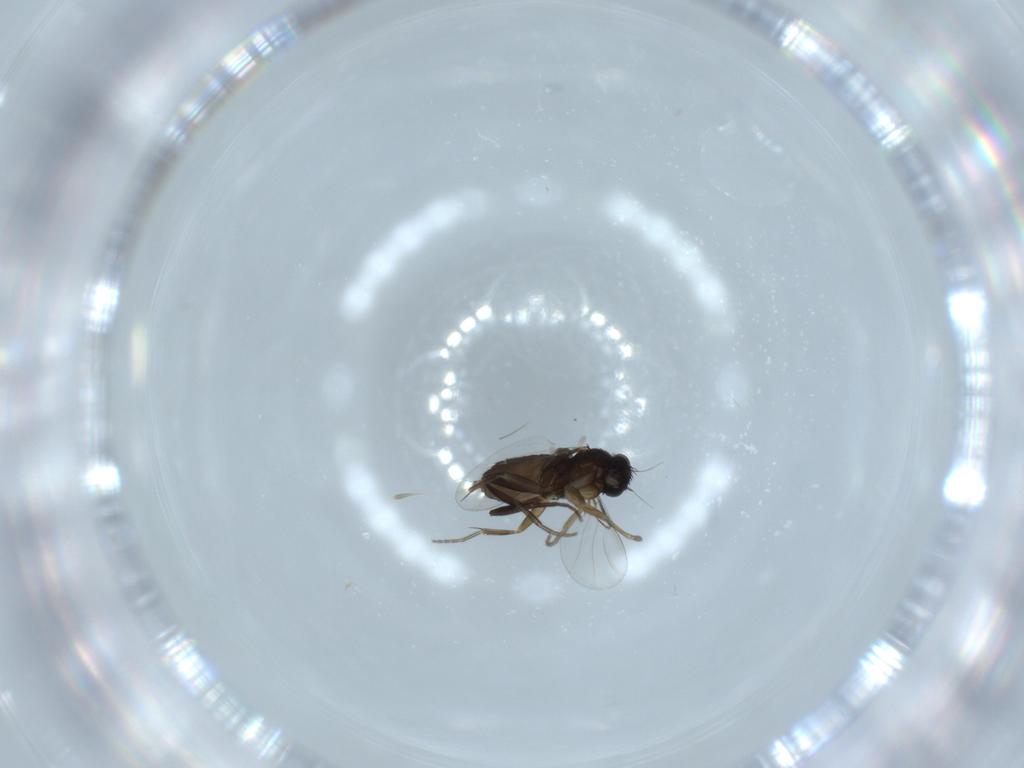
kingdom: Animalia
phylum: Arthropoda
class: Insecta
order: Diptera
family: Phoridae
